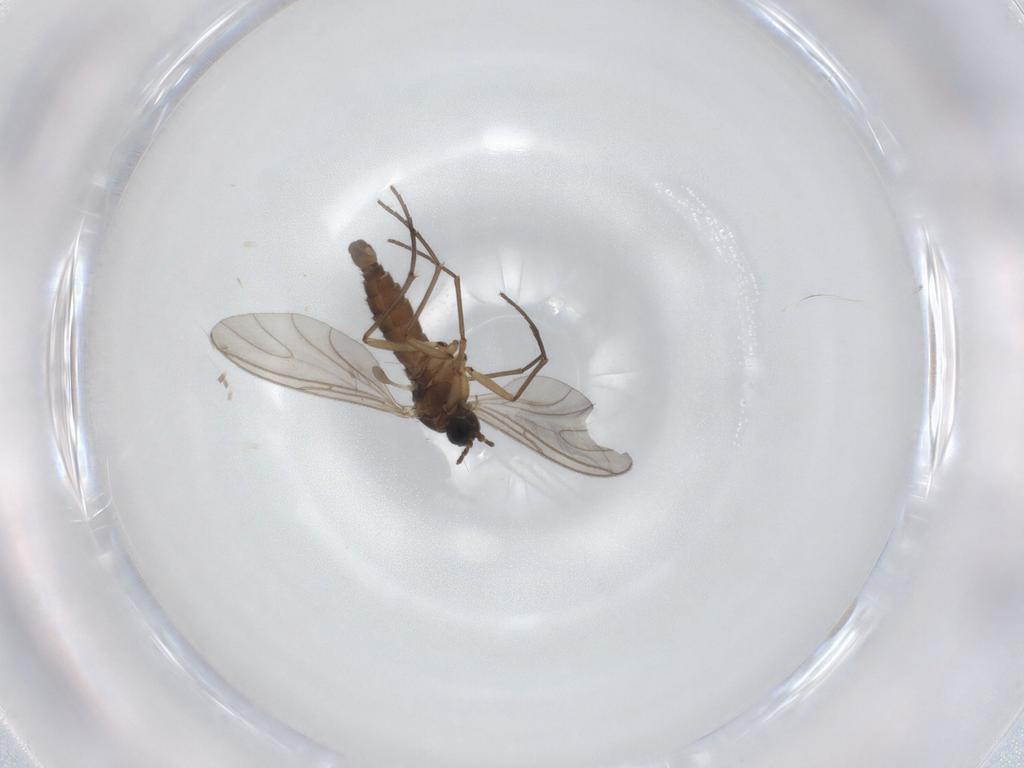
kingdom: Animalia
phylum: Arthropoda
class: Insecta
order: Diptera
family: Sciaridae
